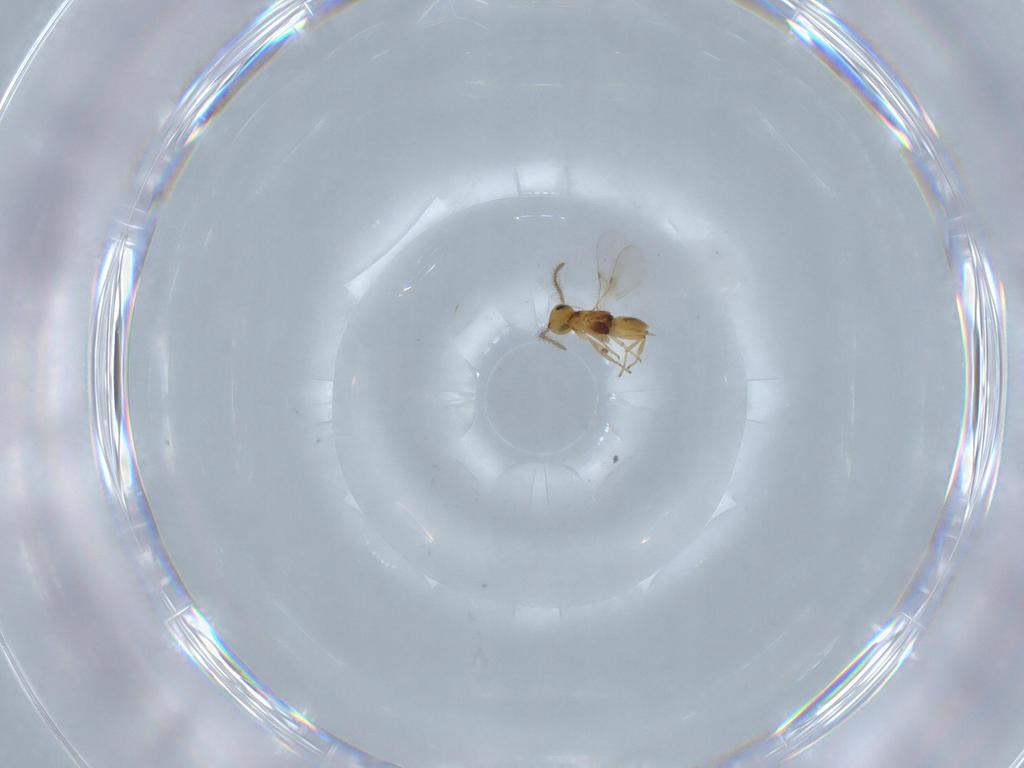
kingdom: Animalia
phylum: Arthropoda
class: Insecta
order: Hymenoptera
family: Encyrtidae
